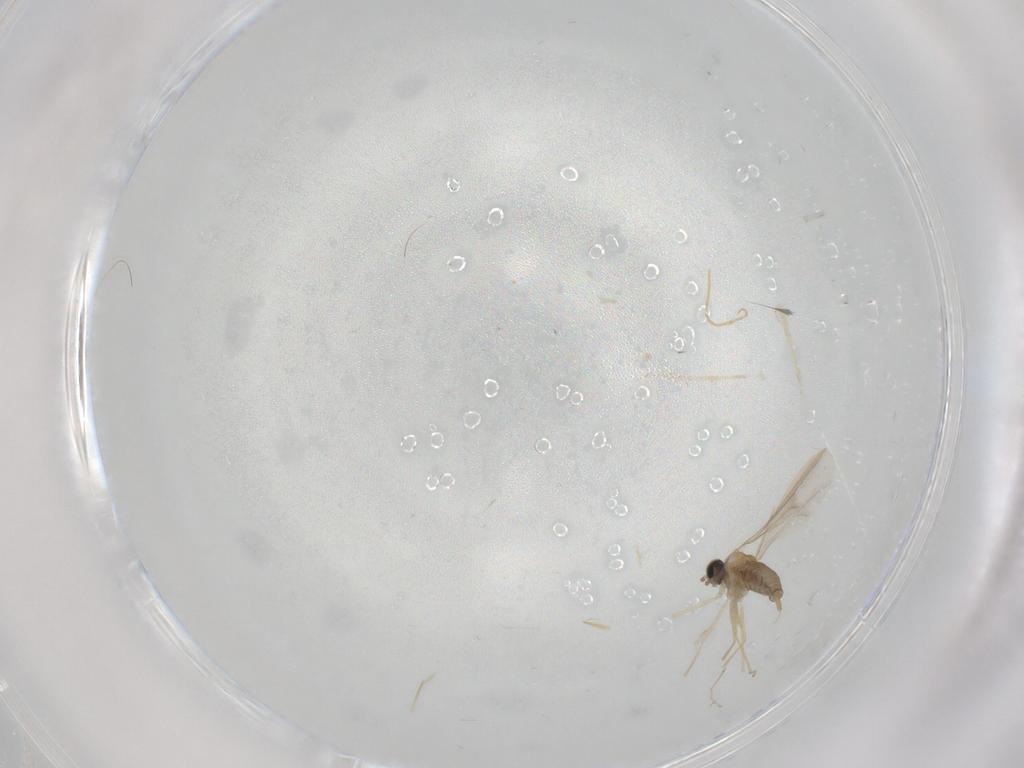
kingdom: Animalia
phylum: Arthropoda
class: Insecta
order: Diptera
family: Cecidomyiidae
